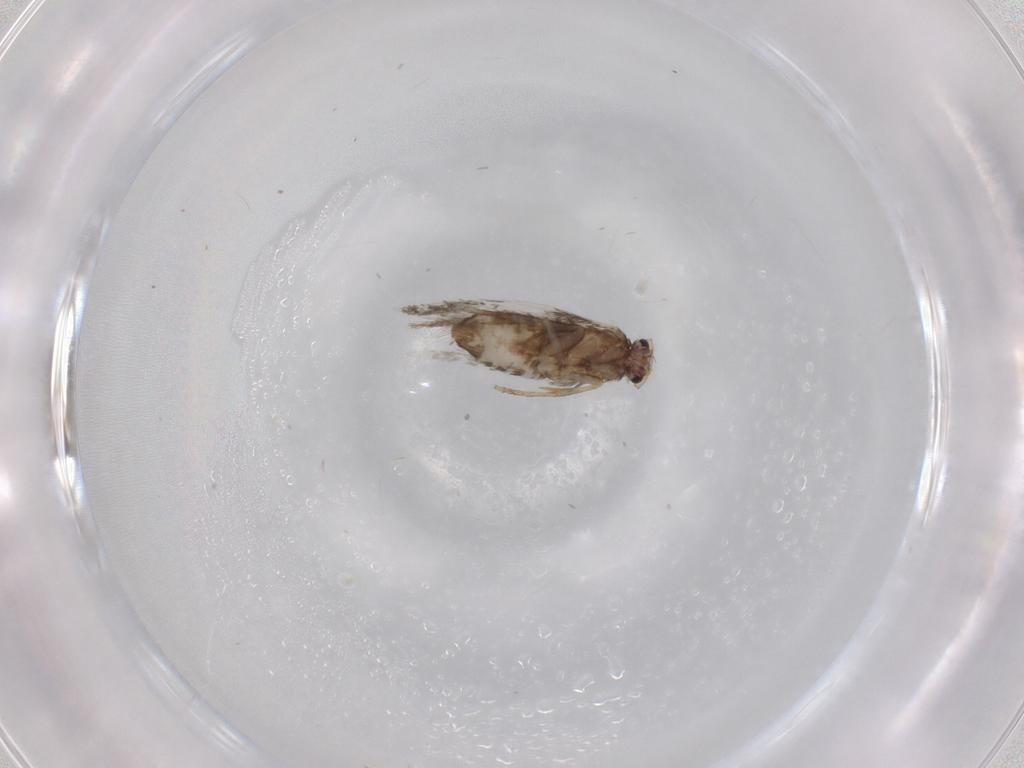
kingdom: Animalia
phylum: Arthropoda
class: Insecta
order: Lepidoptera
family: Nepticulidae
